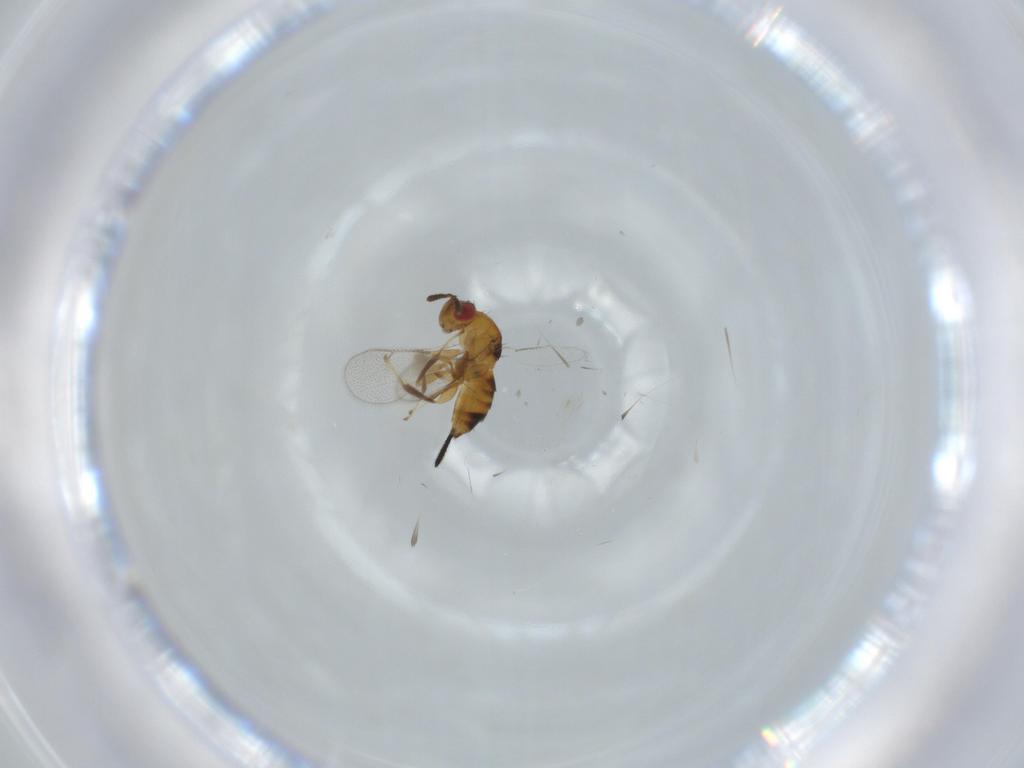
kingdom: Animalia
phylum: Arthropoda
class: Insecta
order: Hymenoptera
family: Torymidae
